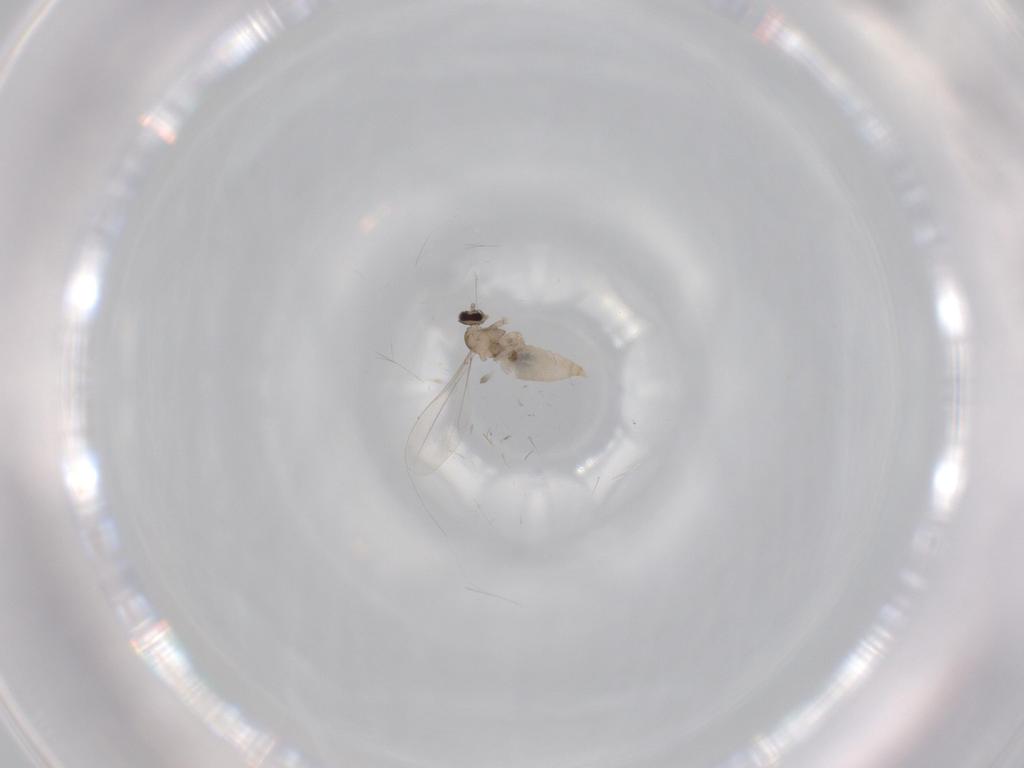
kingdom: Animalia
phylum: Arthropoda
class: Insecta
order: Diptera
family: Cecidomyiidae
